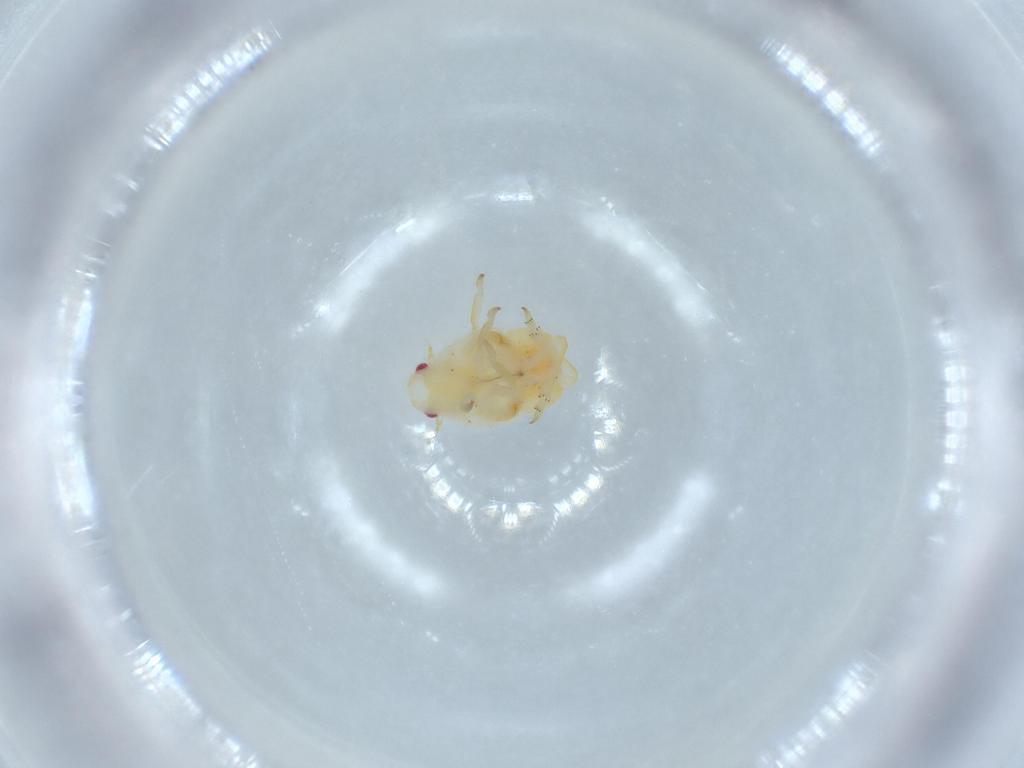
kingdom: Animalia
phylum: Arthropoda
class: Insecta
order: Hemiptera
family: Flatidae
